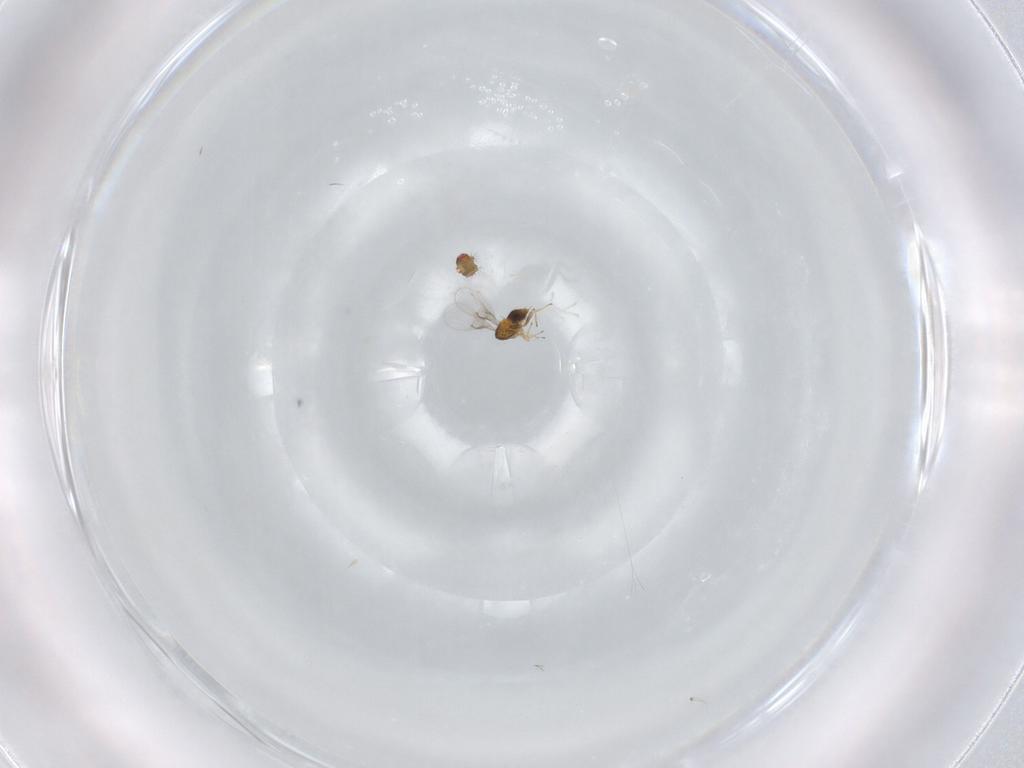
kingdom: Animalia
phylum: Arthropoda
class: Insecta
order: Hymenoptera
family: Trichogrammatidae
